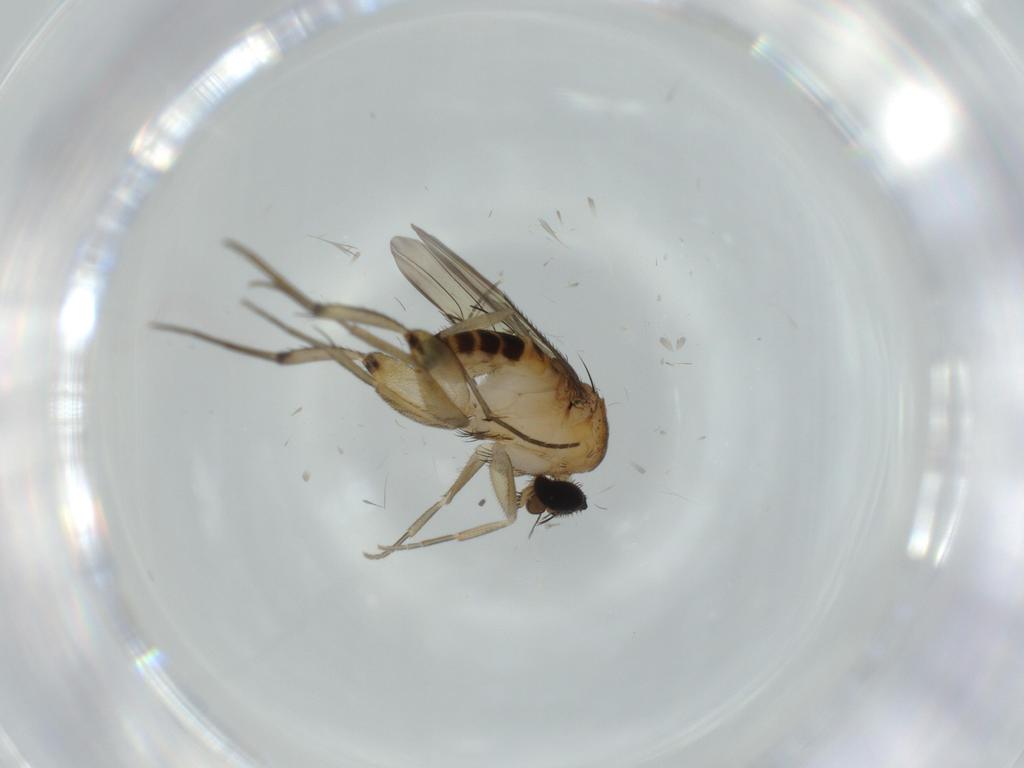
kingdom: Animalia
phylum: Arthropoda
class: Insecta
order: Diptera
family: Phoridae
